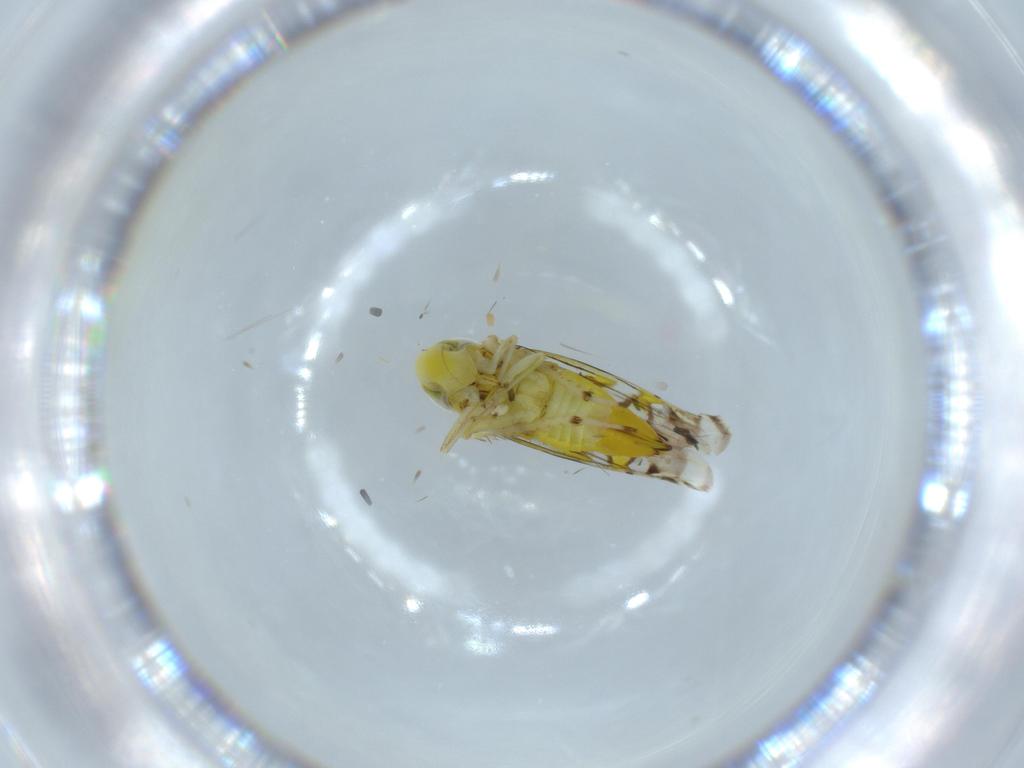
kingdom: Animalia
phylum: Arthropoda
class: Insecta
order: Hemiptera
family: Cicadellidae
